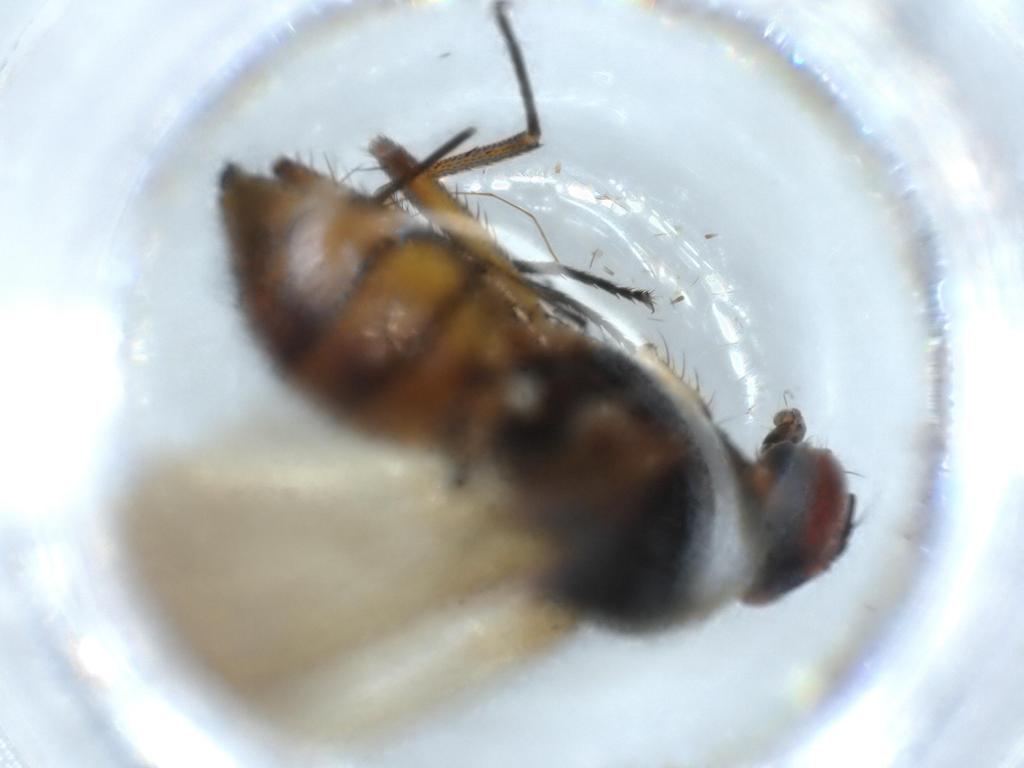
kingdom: Animalia
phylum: Arthropoda
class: Insecta
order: Diptera
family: Anthomyiidae
